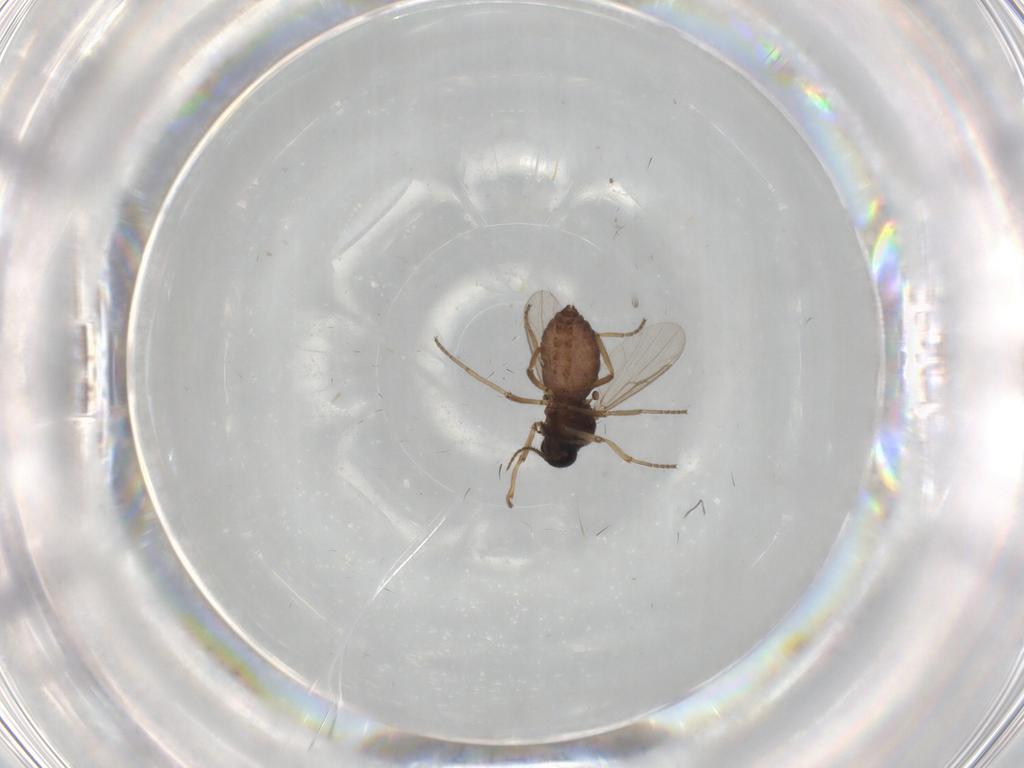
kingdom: Animalia
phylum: Arthropoda
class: Insecta
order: Diptera
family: Ceratopogonidae
